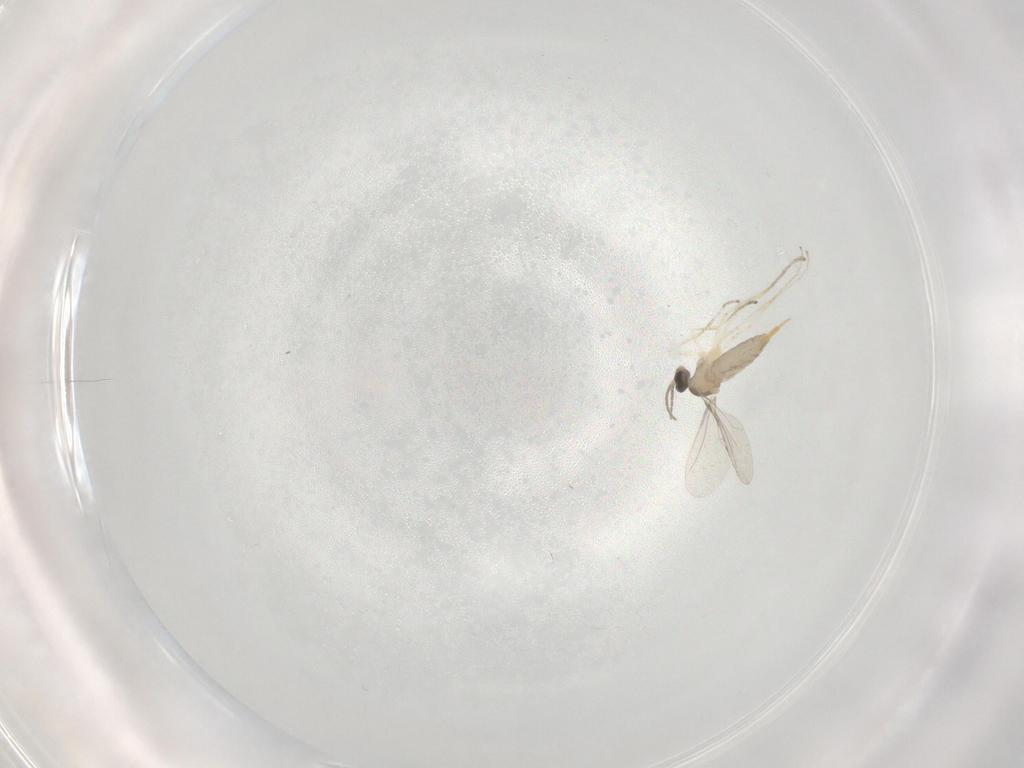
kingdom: Animalia
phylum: Arthropoda
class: Insecta
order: Diptera
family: Cecidomyiidae
